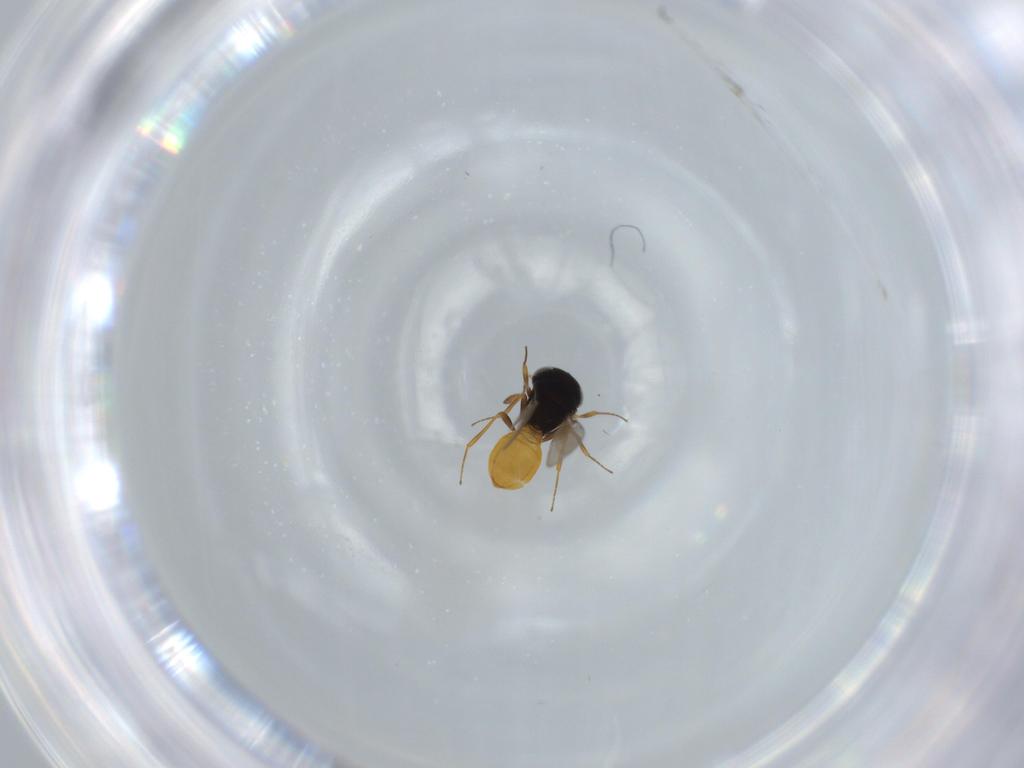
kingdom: Animalia
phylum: Arthropoda
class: Insecta
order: Hymenoptera
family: Scelionidae
